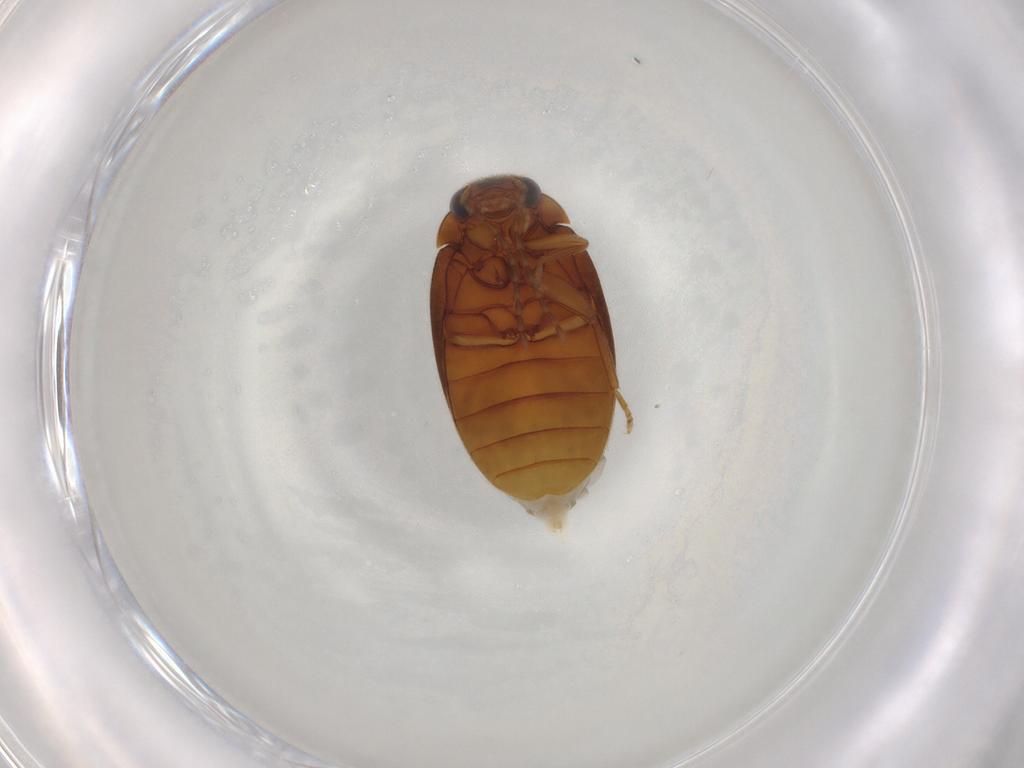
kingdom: Animalia
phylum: Arthropoda
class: Insecta
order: Coleoptera
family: Scirtidae
